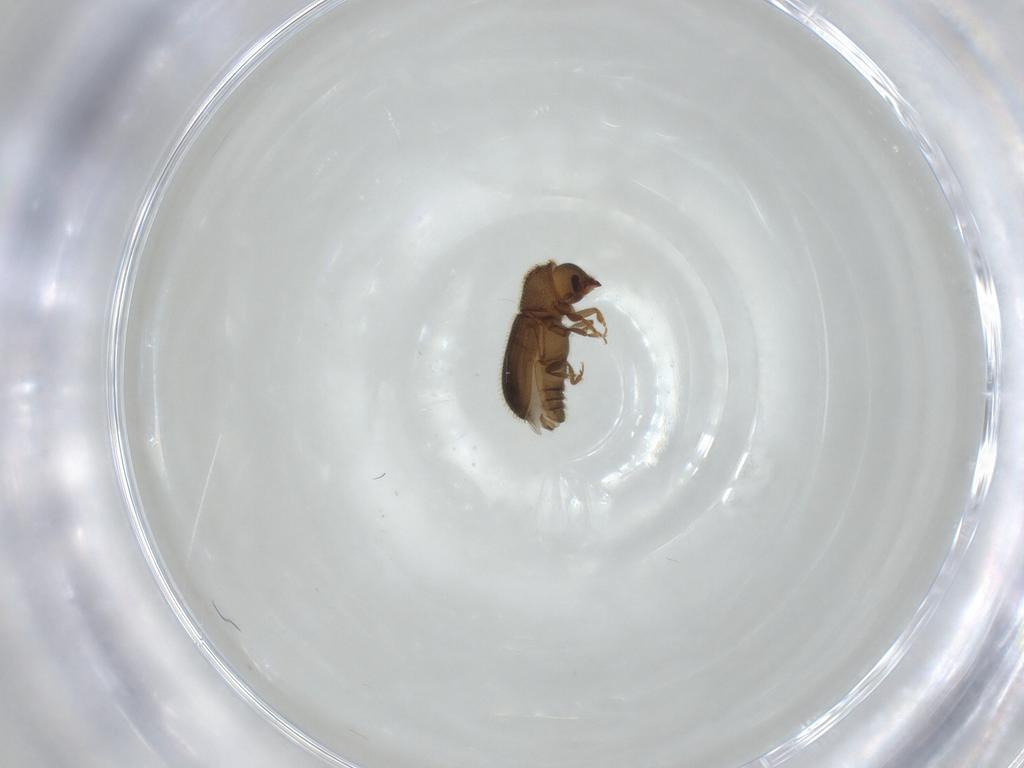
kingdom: Animalia
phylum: Arthropoda
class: Insecta
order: Coleoptera
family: Curculionidae
